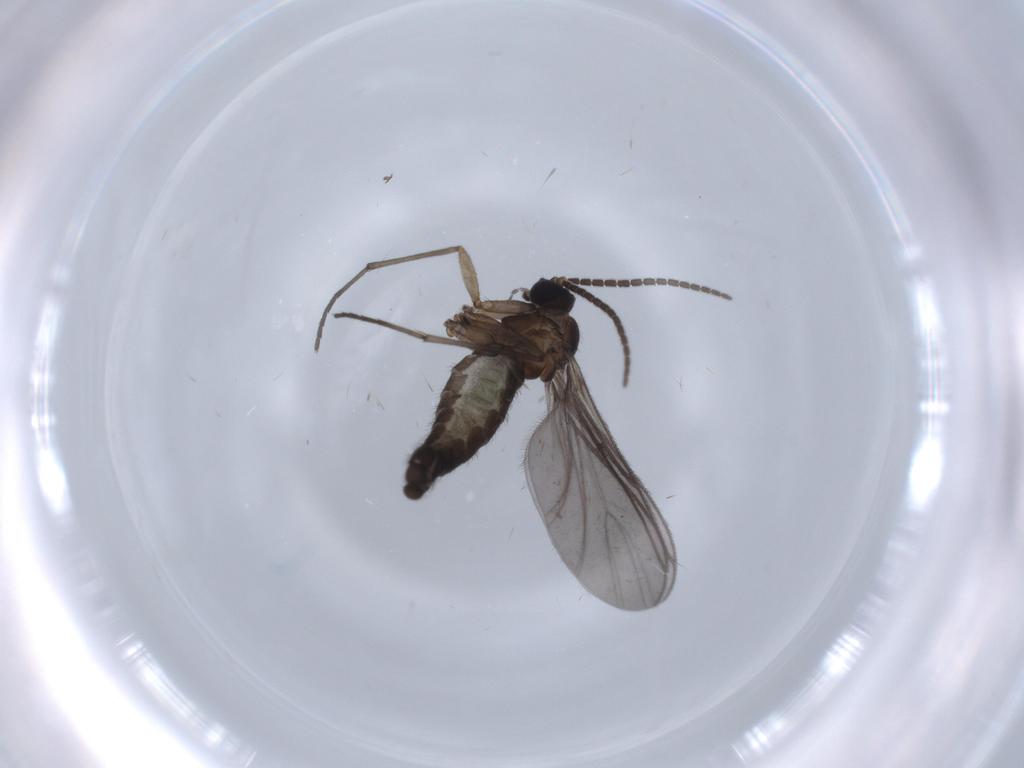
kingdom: Animalia
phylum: Arthropoda
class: Insecta
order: Diptera
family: Sciaridae
